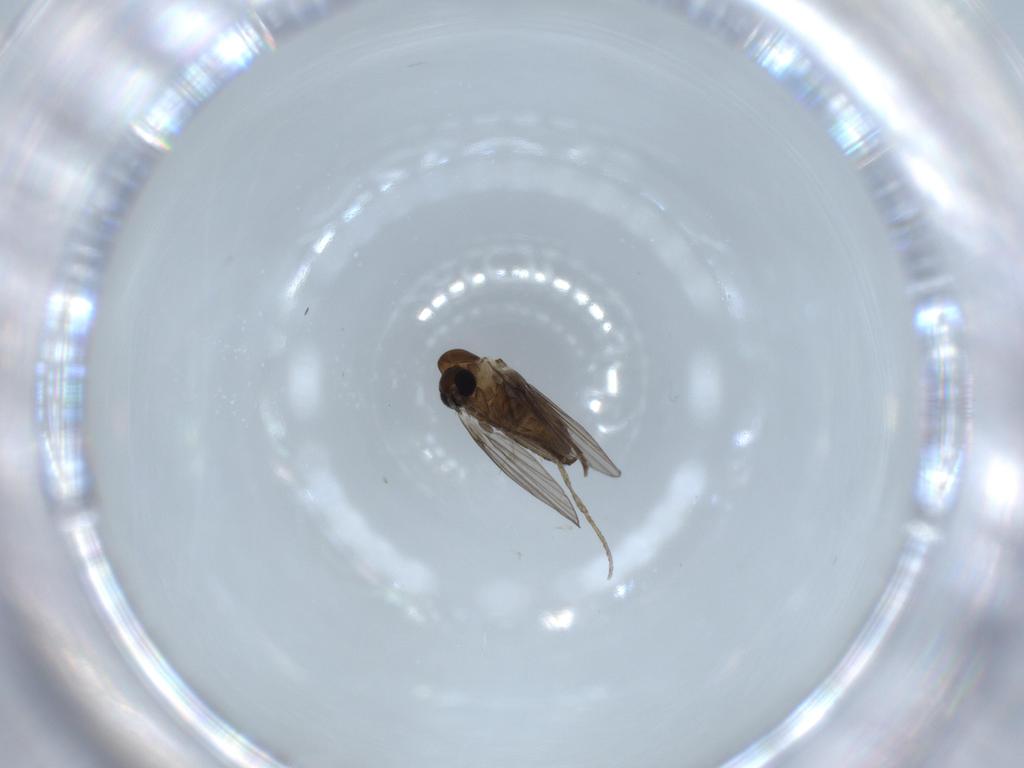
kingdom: Animalia
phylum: Arthropoda
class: Insecta
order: Diptera
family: Psychodidae
